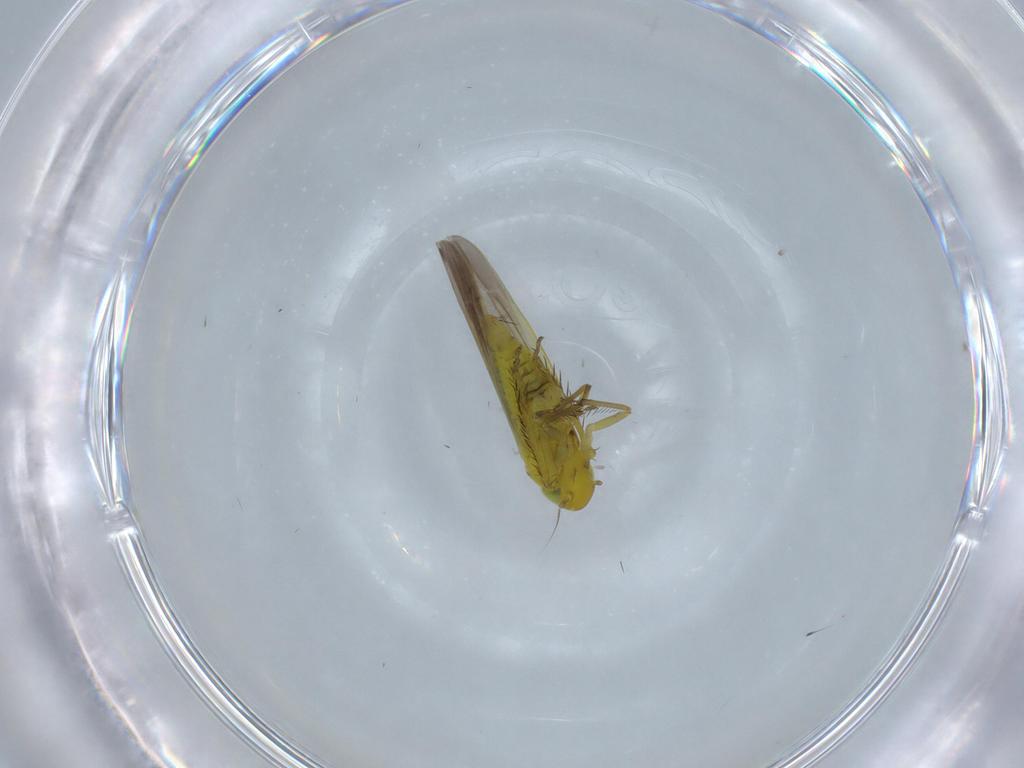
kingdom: Animalia
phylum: Arthropoda
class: Insecta
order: Hemiptera
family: Cicadellidae
